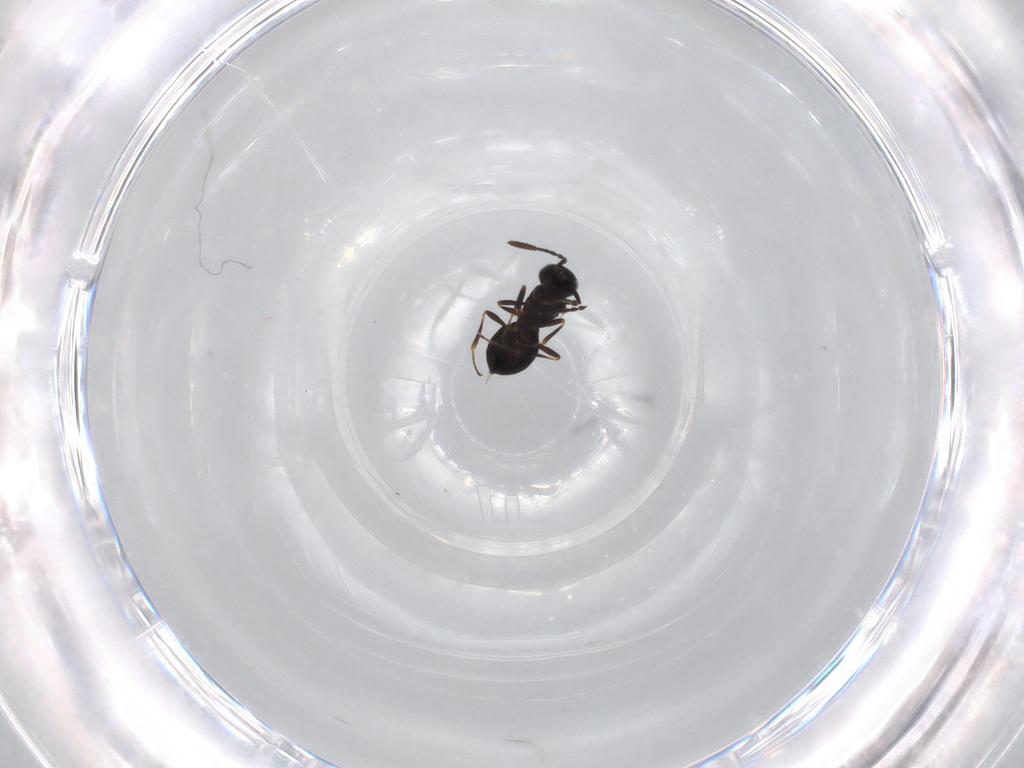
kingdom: Animalia
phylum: Arthropoda
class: Insecta
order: Hymenoptera
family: Scelionidae
